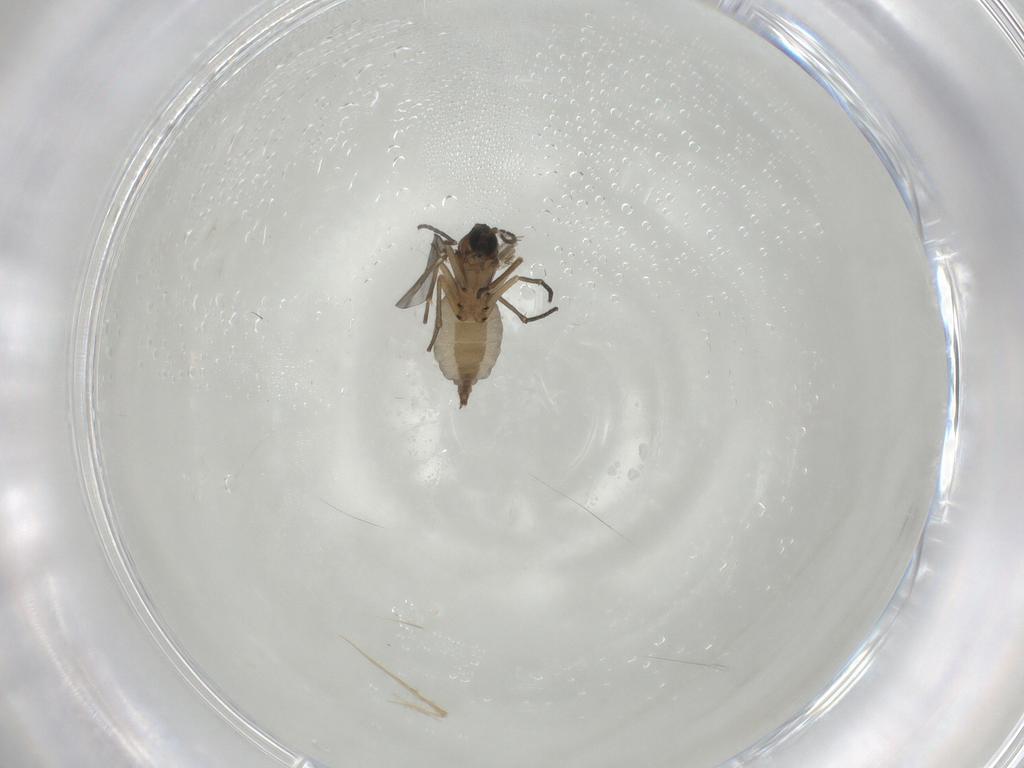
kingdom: Animalia
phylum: Arthropoda
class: Insecta
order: Diptera
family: Sciaridae
